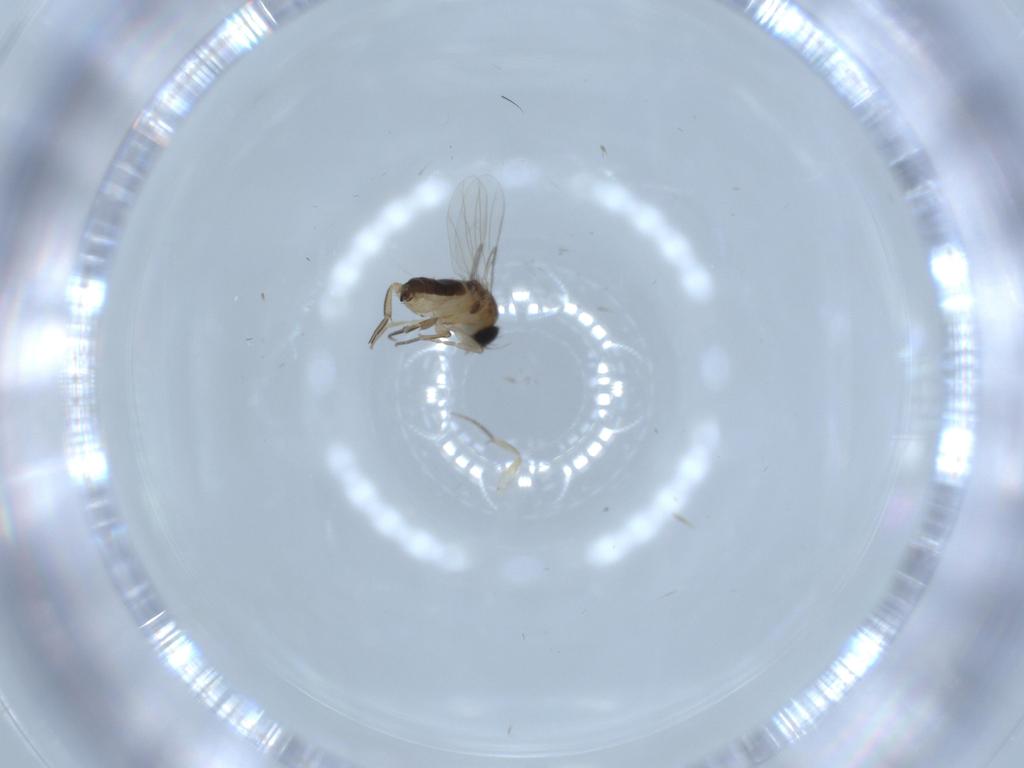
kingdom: Animalia
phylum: Arthropoda
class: Insecta
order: Diptera
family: Phoridae
